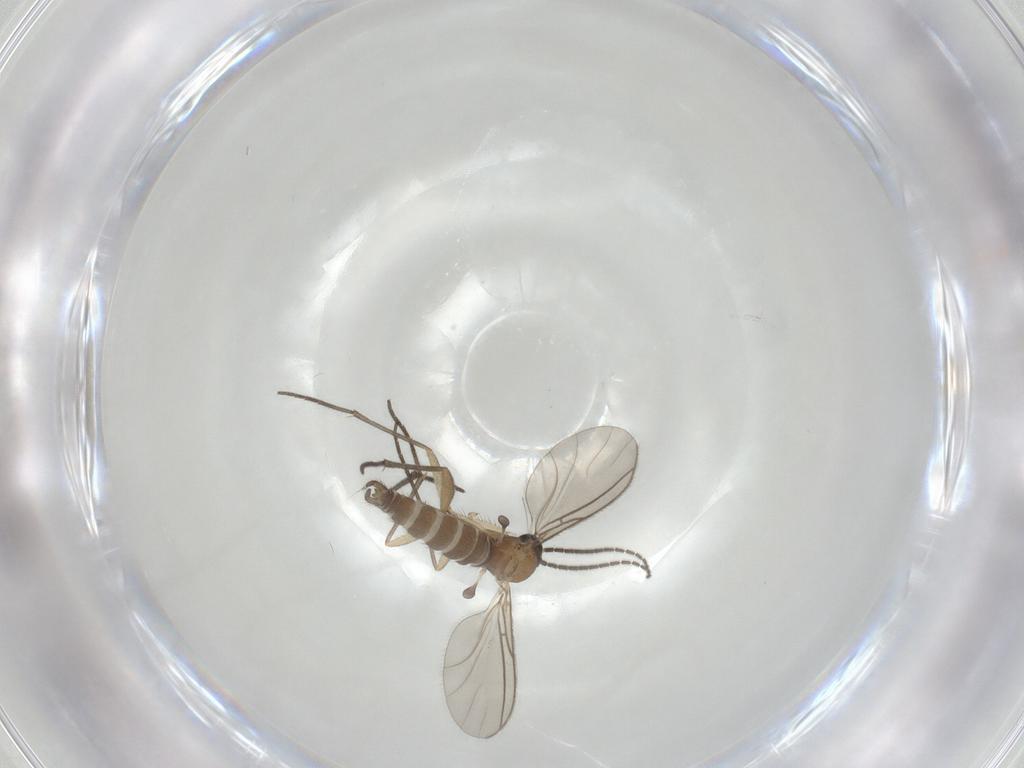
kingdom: Animalia
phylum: Arthropoda
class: Insecta
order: Diptera
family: Sciaridae
